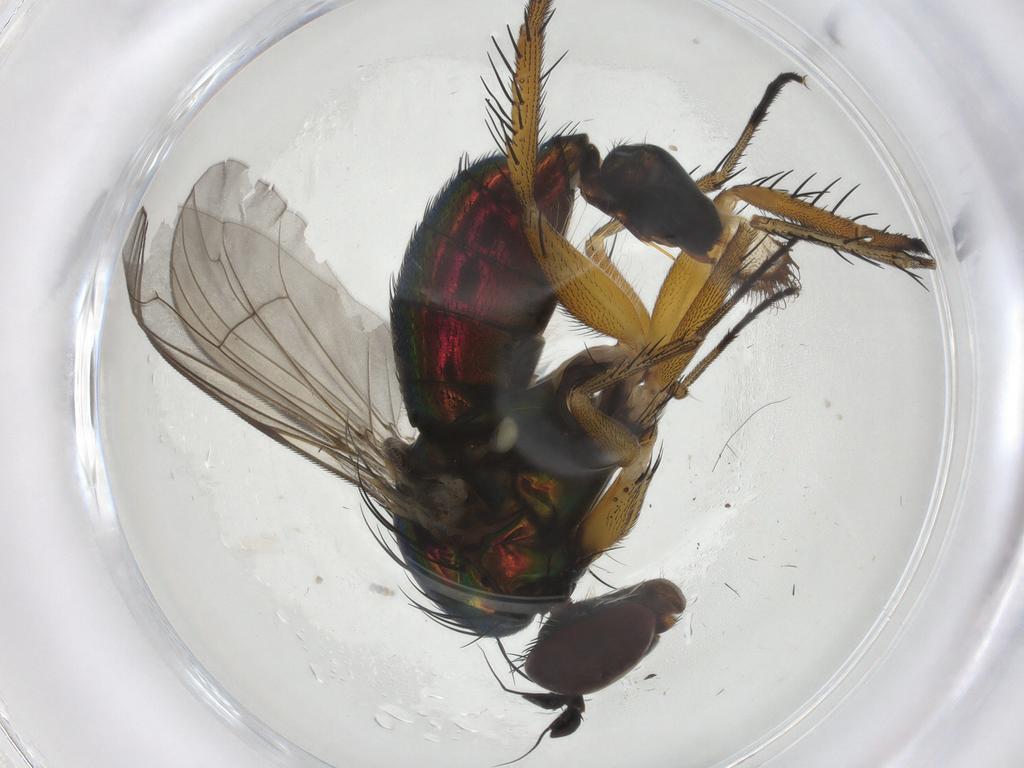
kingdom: Animalia
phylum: Arthropoda
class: Insecta
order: Diptera
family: Dolichopodidae
